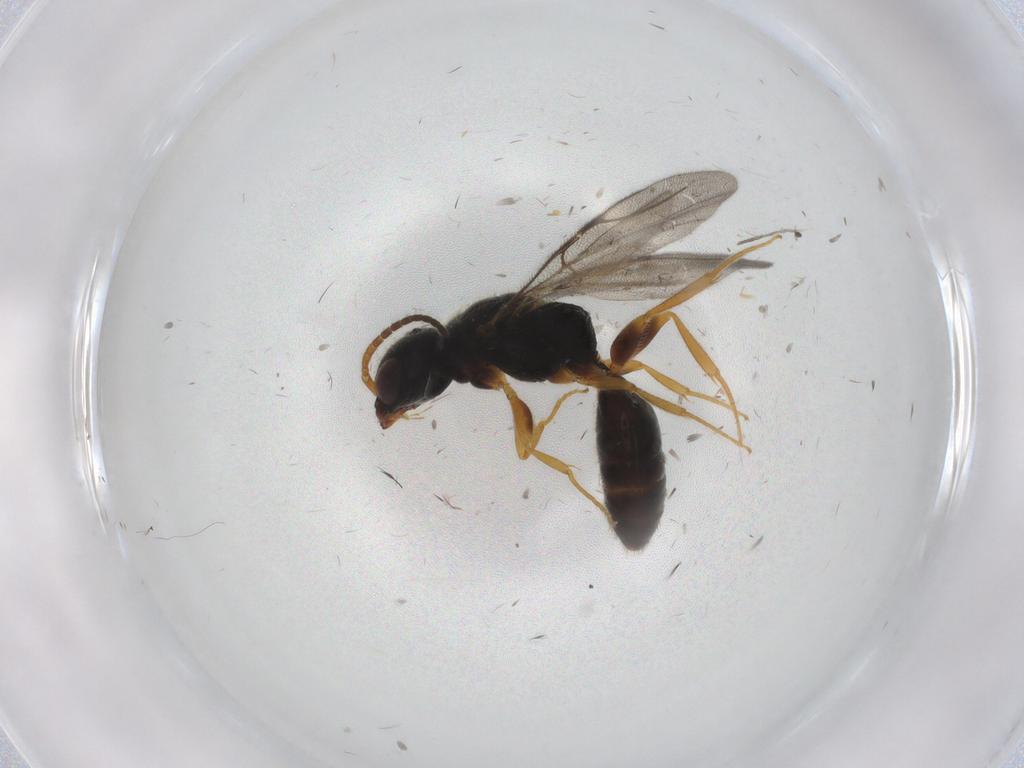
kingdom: Animalia
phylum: Arthropoda
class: Insecta
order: Hymenoptera
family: Bethylidae
